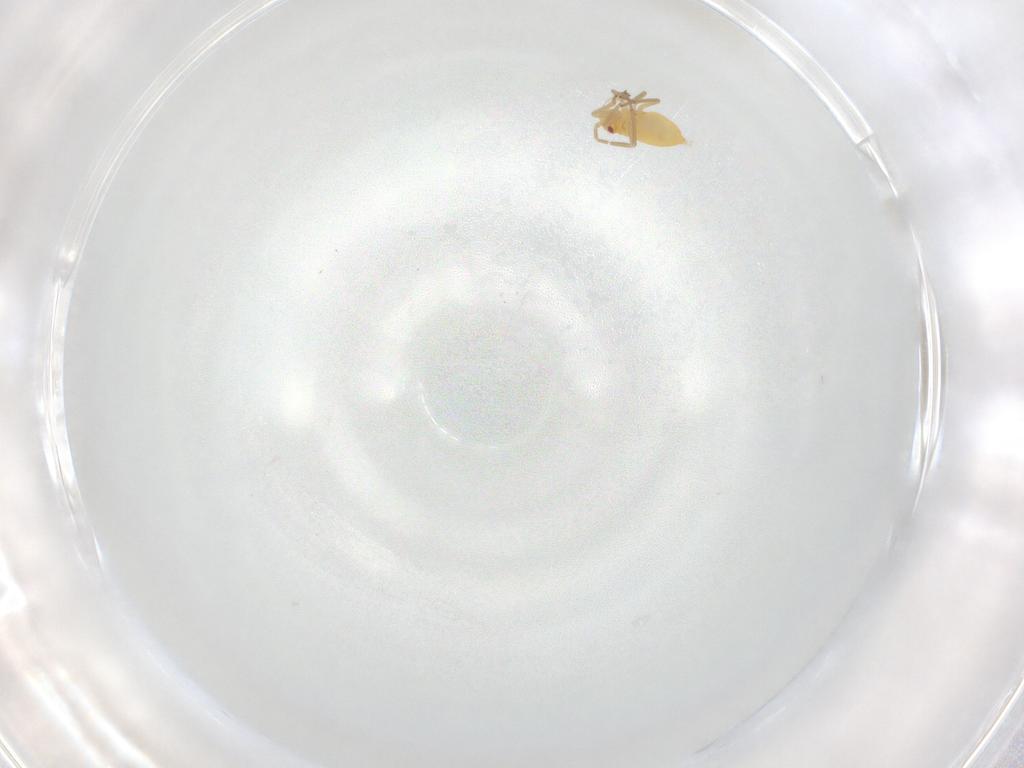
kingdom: Animalia
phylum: Arthropoda
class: Insecta
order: Hemiptera
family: Miridae
